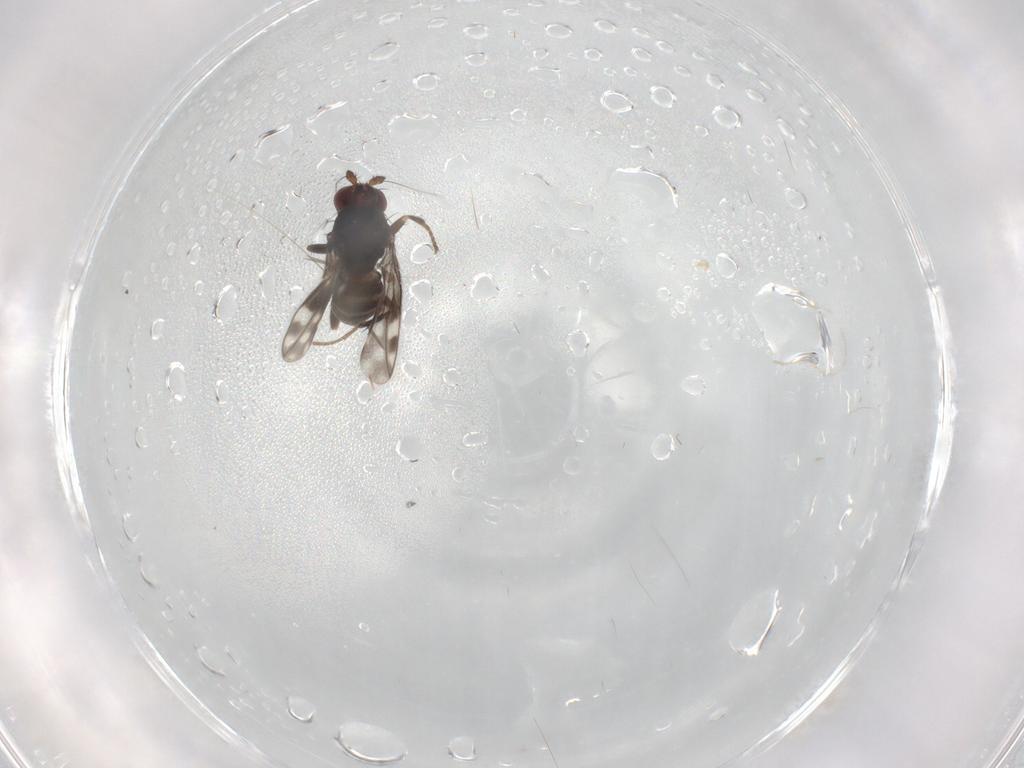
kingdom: Animalia
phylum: Arthropoda
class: Insecta
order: Diptera
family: Sphaeroceridae
